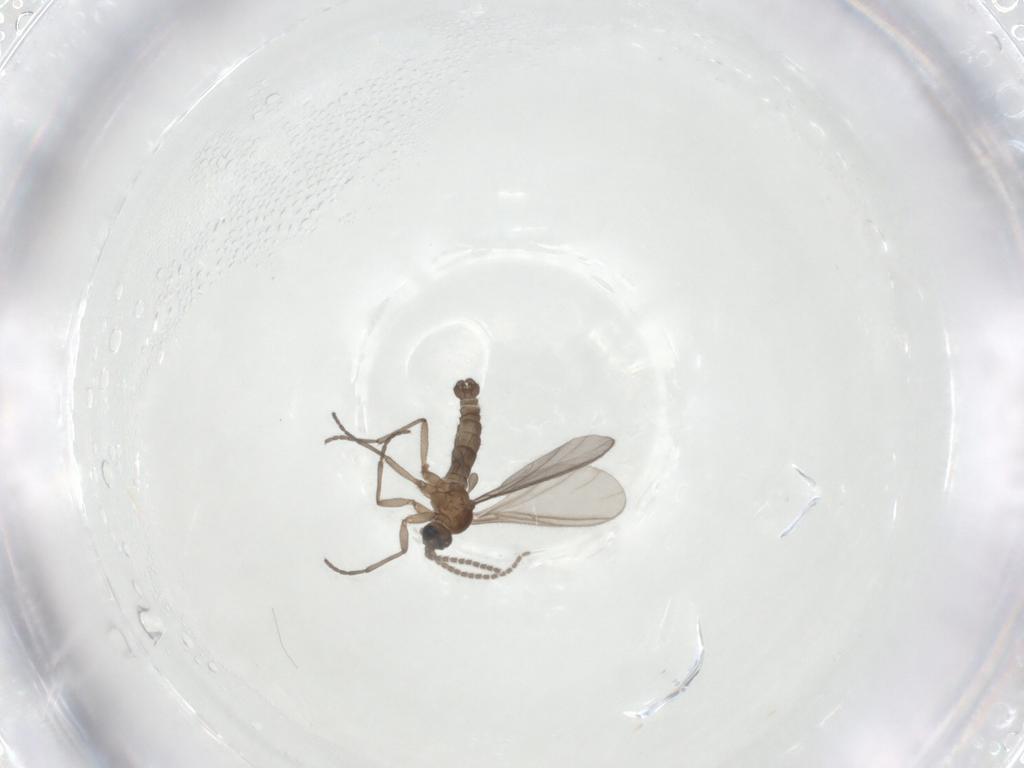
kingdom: Animalia
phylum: Arthropoda
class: Insecta
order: Diptera
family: Sciaridae
